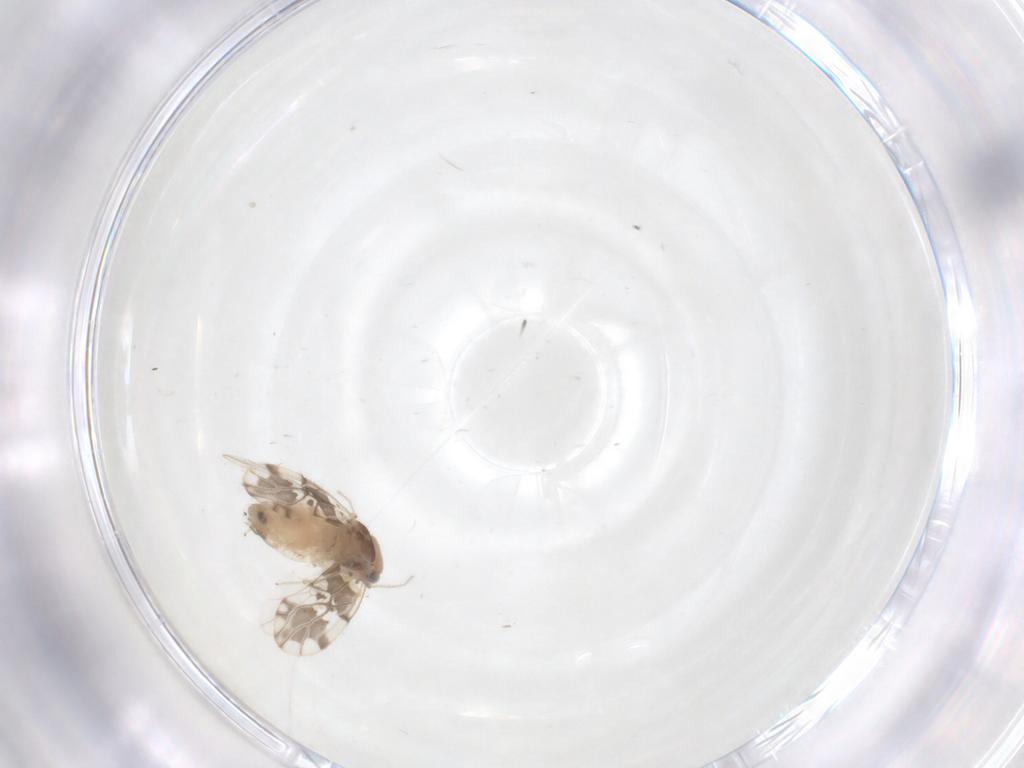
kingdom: Animalia
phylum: Arthropoda
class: Insecta
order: Psocodea
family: Ectopsocidae
